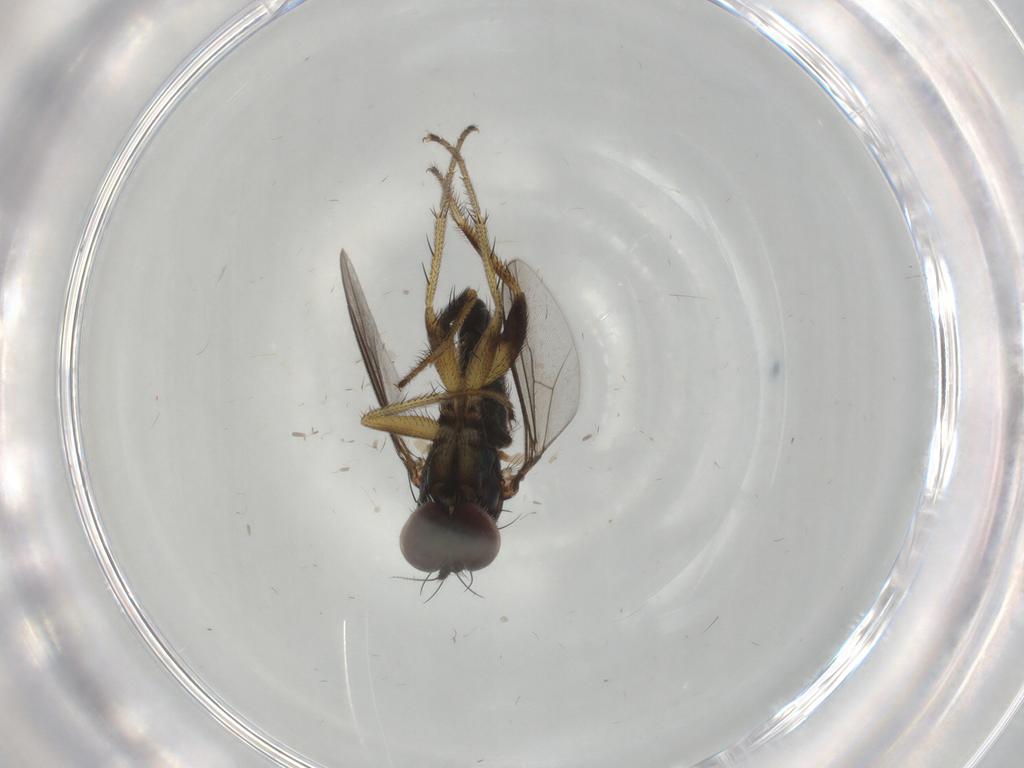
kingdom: Animalia
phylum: Arthropoda
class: Insecta
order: Diptera
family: Dolichopodidae
